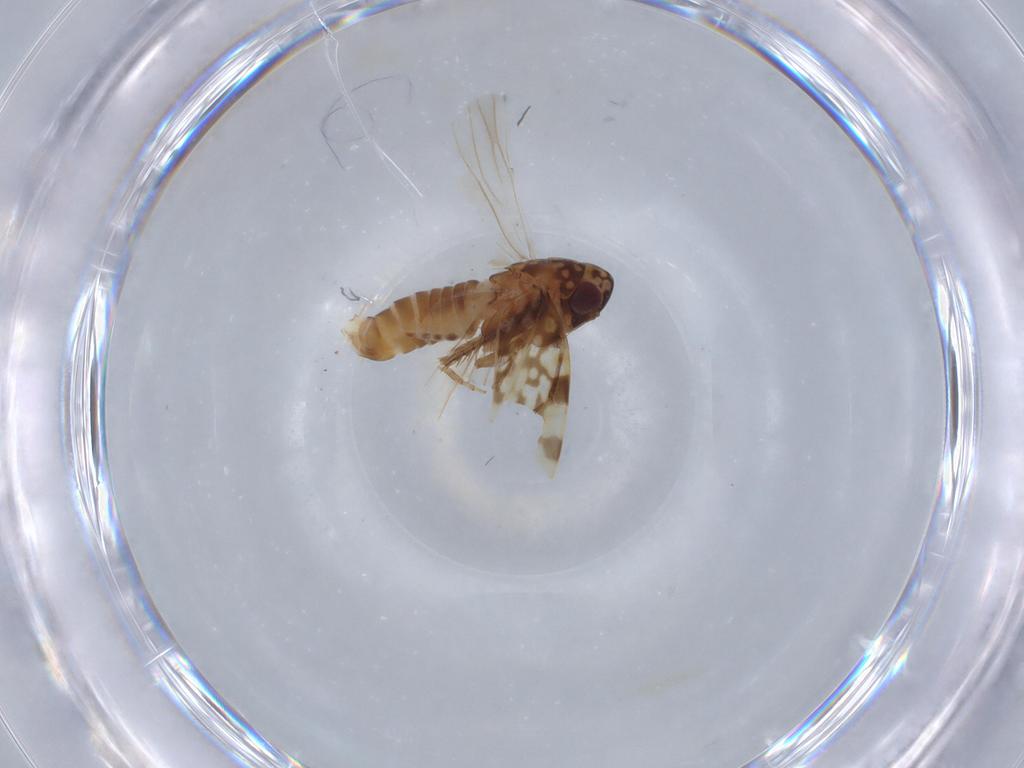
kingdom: Animalia
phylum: Arthropoda
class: Insecta
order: Hemiptera
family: Cicadellidae
